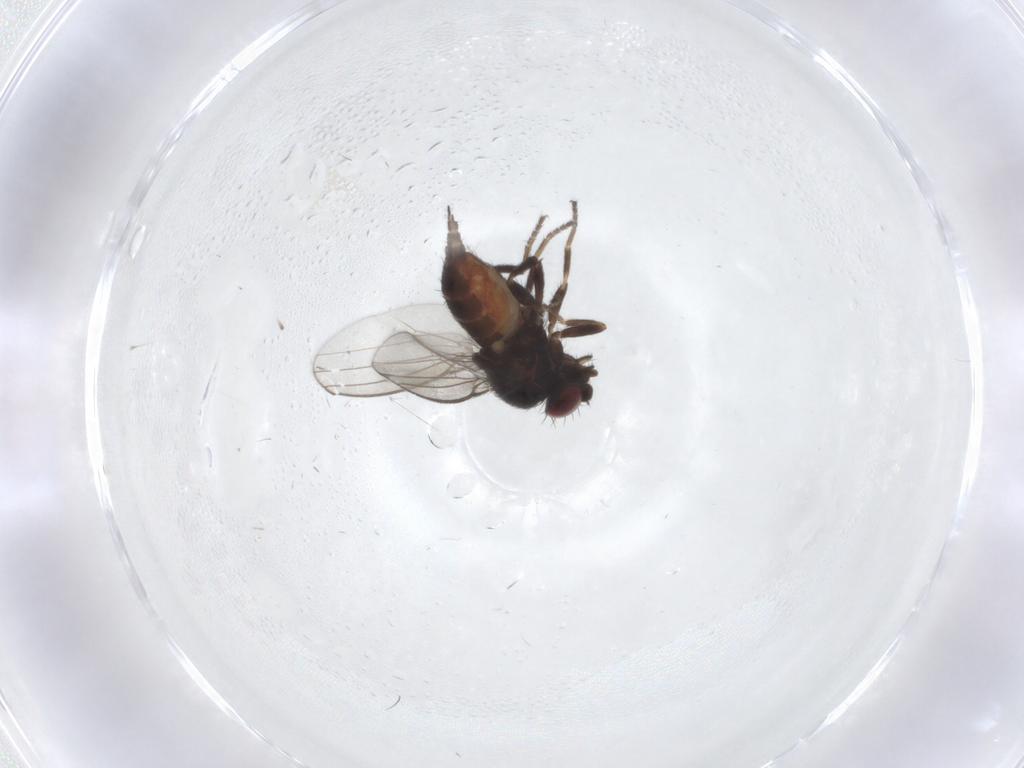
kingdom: Animalia
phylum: Arthropoda
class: Insecta
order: Diptera
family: Milichiidae
